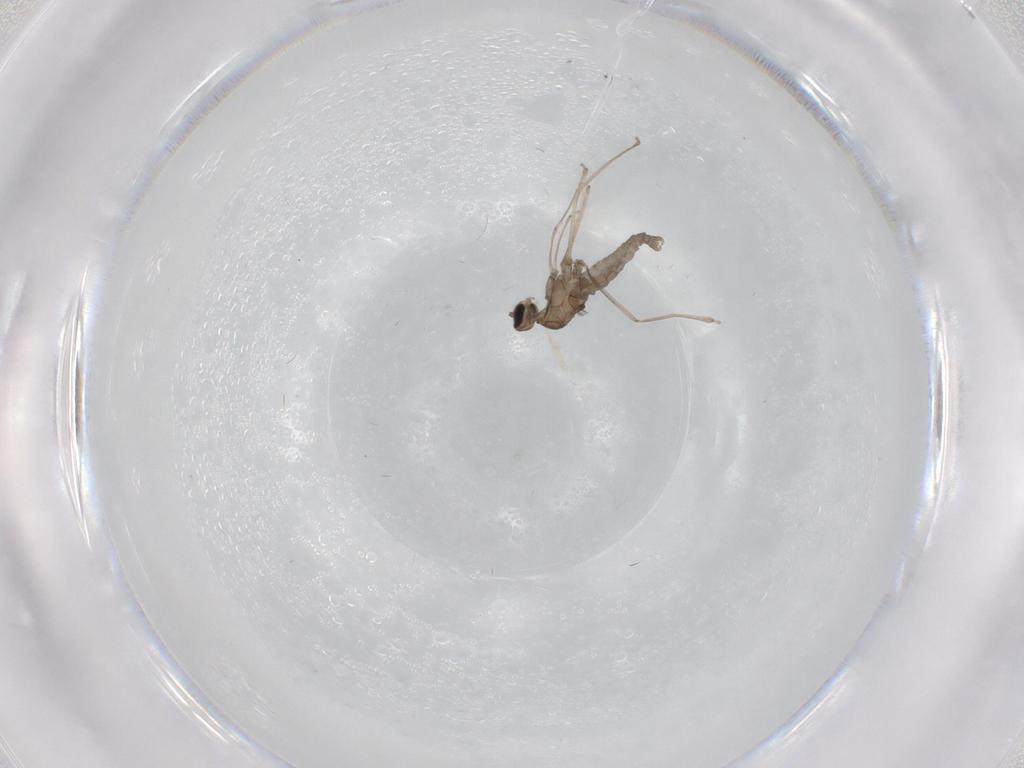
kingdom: Animalia
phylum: Arthropoda
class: Insecta
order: Diptera
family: Cecidomyiidae
